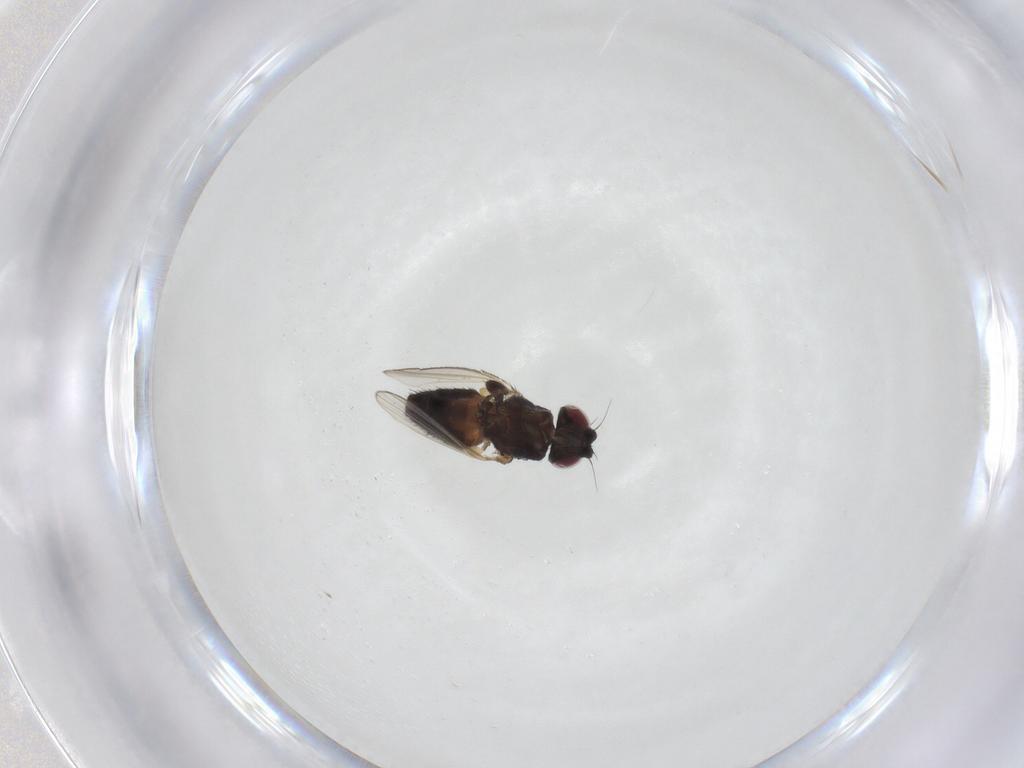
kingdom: Animalia
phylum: Arthropoda
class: Insecta
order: Diptera
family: Milichiidae
